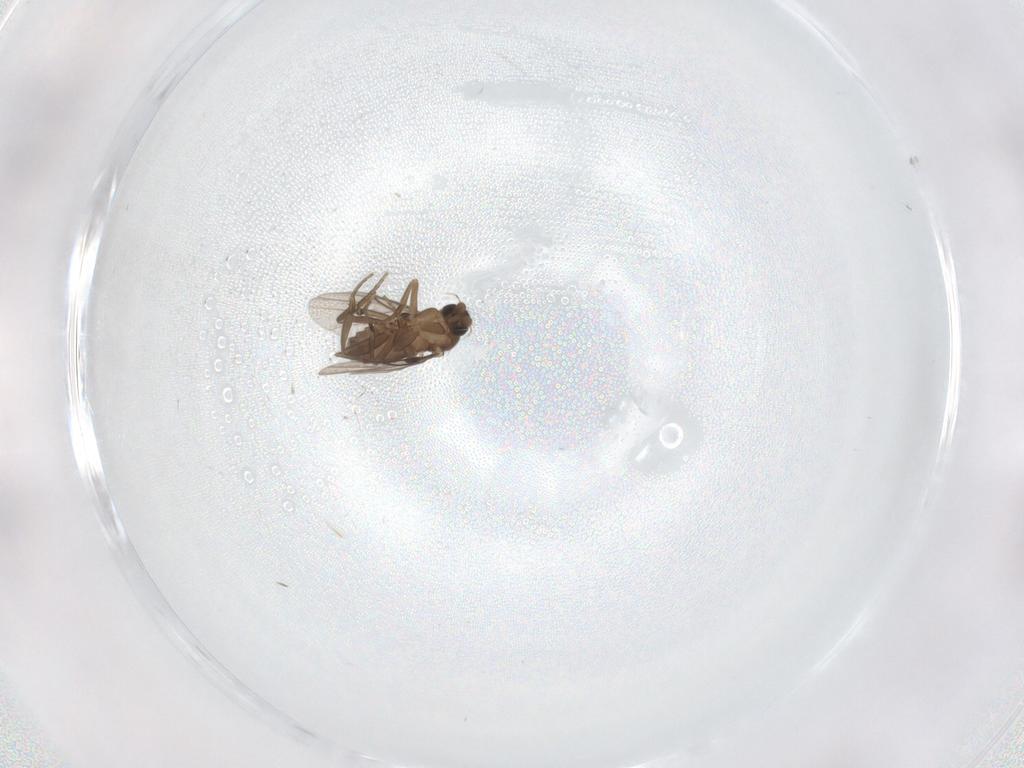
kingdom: Animalia
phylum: Arthropoda
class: Insecta
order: Diptera
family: Phoridae
